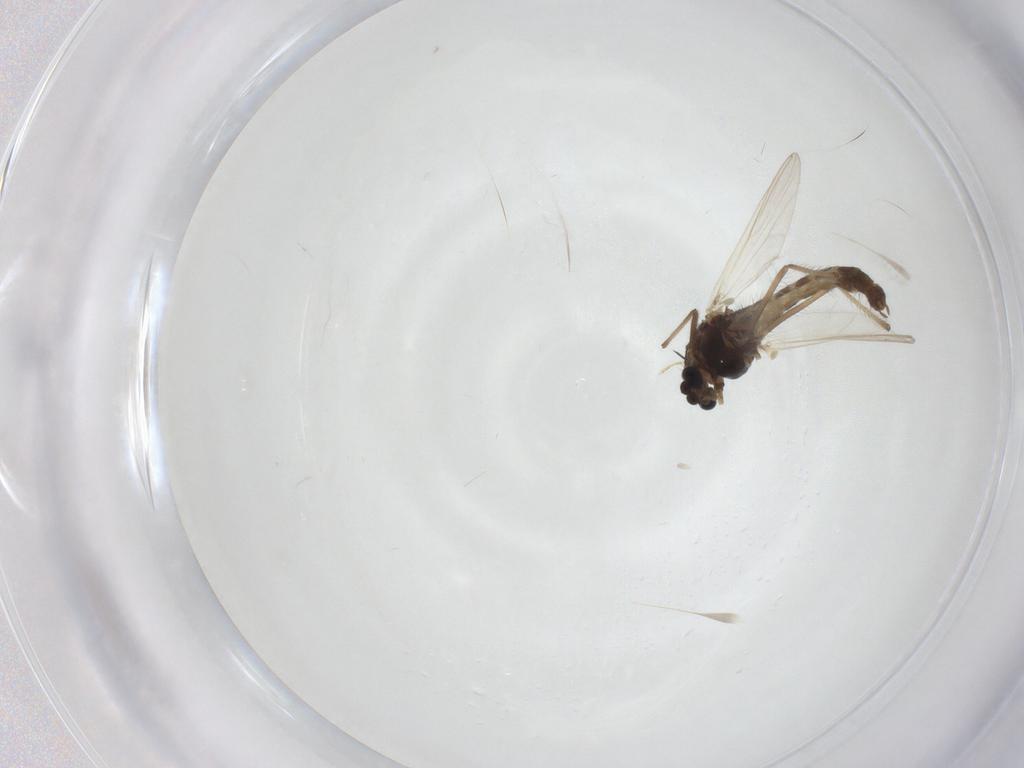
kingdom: Animalia
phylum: Arthropoda
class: Insecta
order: Diptera
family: Chironomidae
